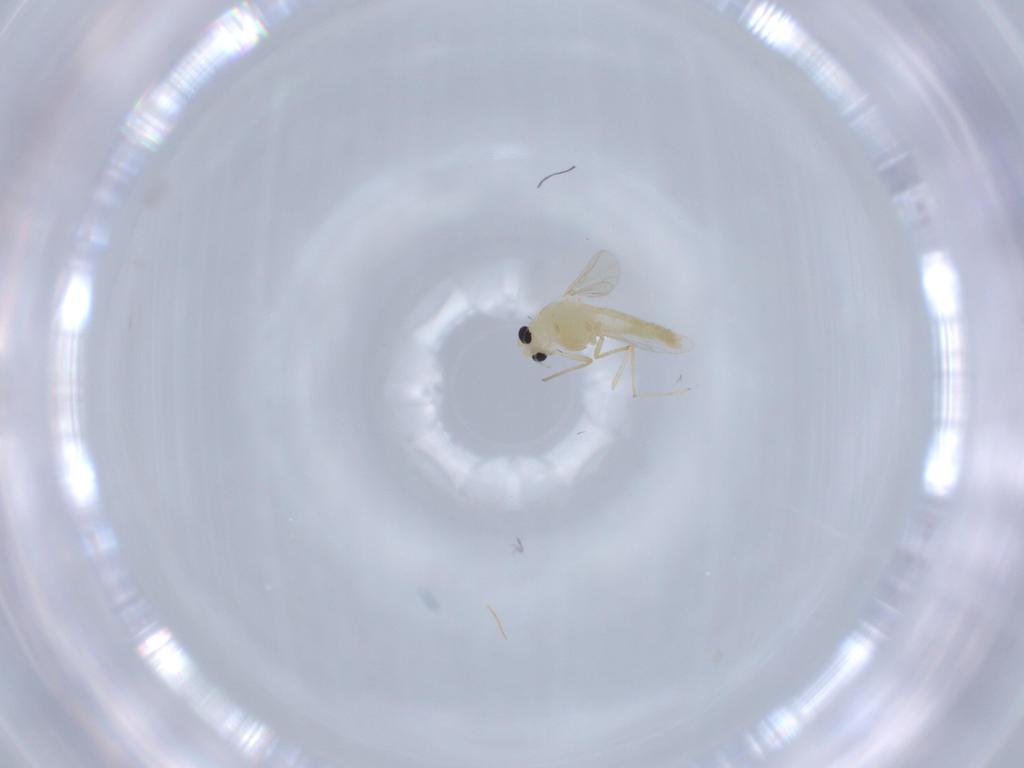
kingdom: Animalia
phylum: Arthropoda
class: Insecta
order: Diptera
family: Chironomidae
